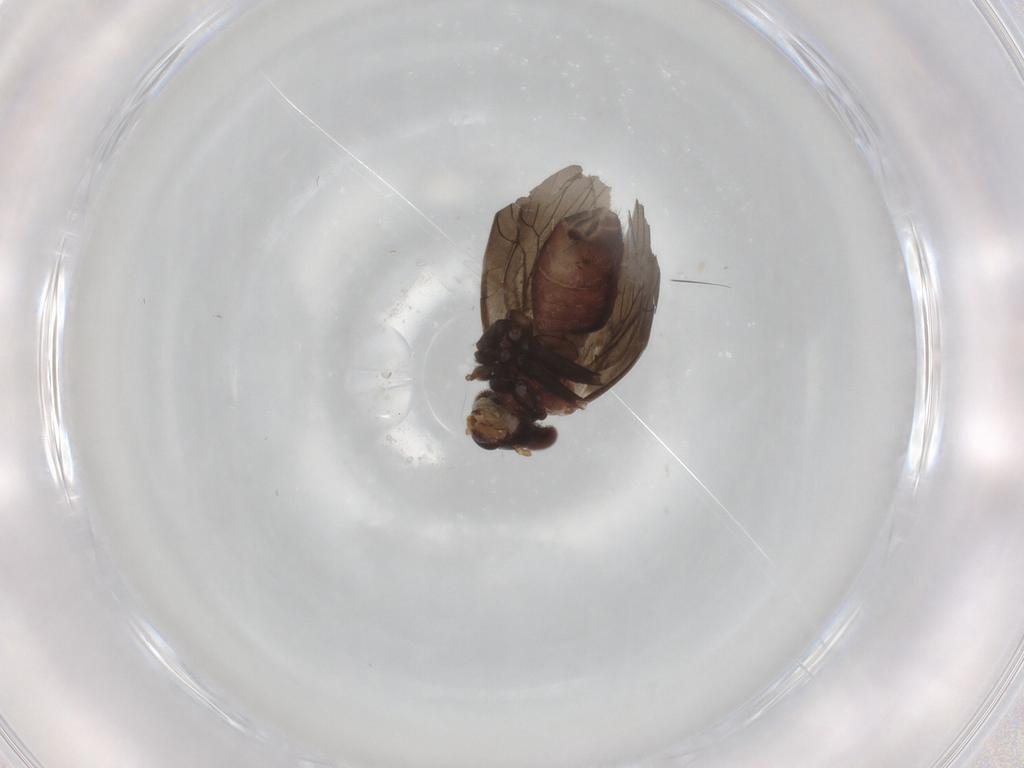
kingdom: Animalia
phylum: Arthropoda
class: Insecta
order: Psocodea
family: Lepidopsocidae
